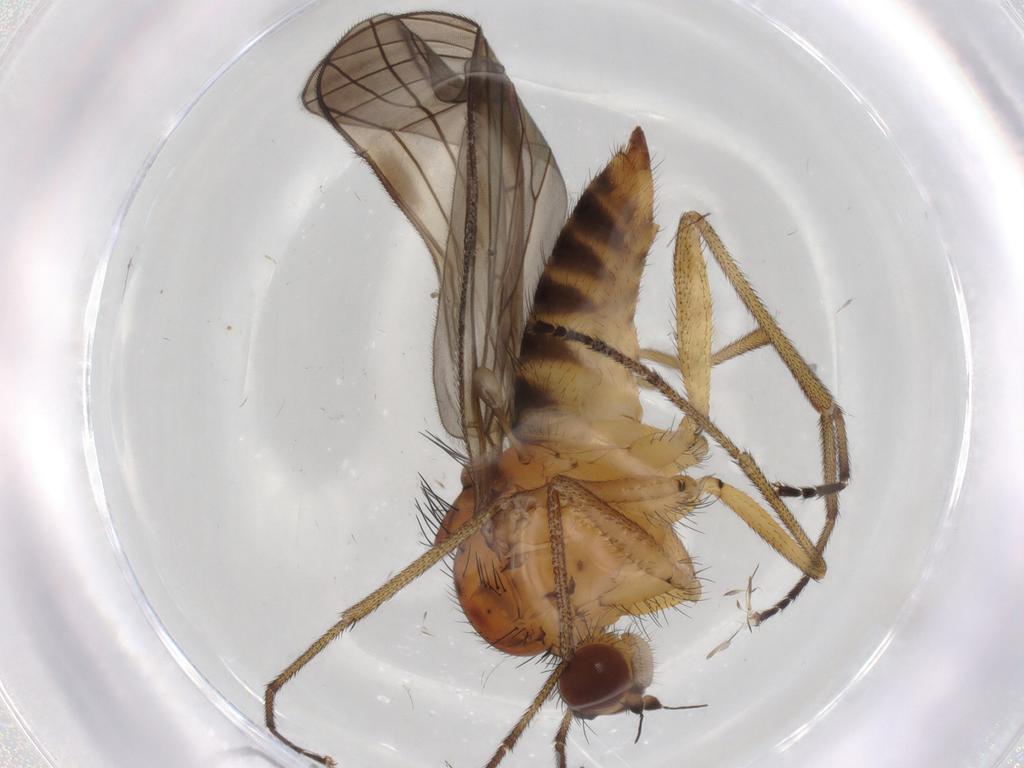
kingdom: Animalia
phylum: Arthropoda
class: Insecta
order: Diptera
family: Brachystomatidae
